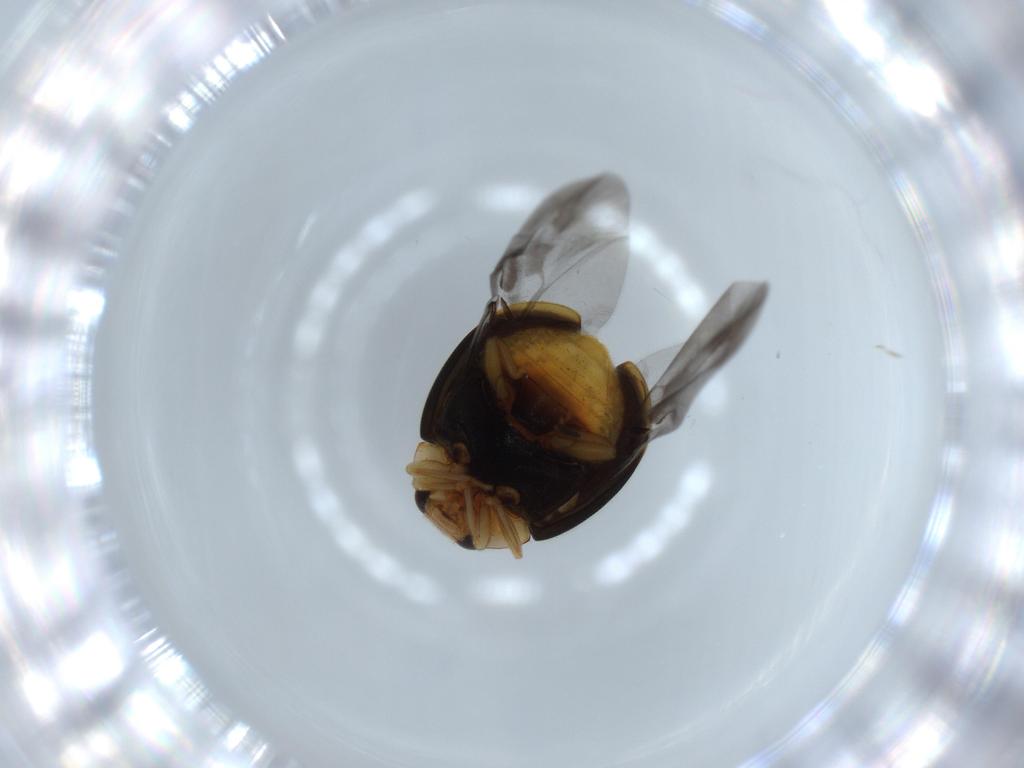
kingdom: Animalia
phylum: Arthropoda
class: Insecta
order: Coleoptera
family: Coccinellidae
